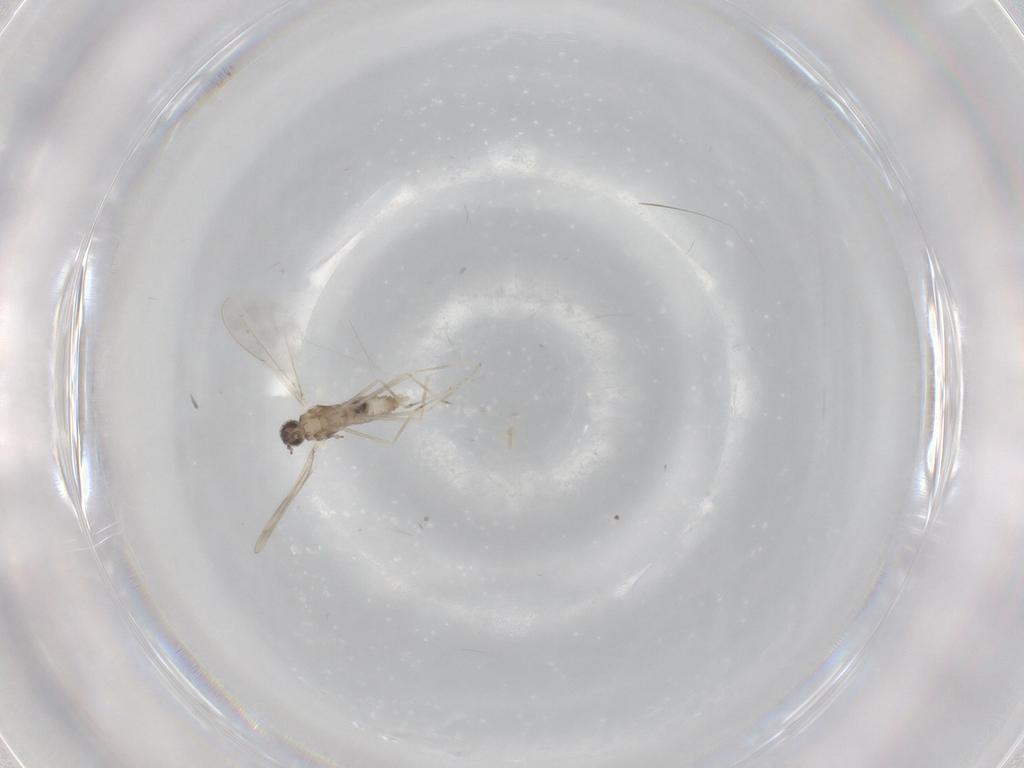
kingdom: Animalia
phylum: Arthropoda
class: Insecta
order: Diptera
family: Cecidomyiidae
